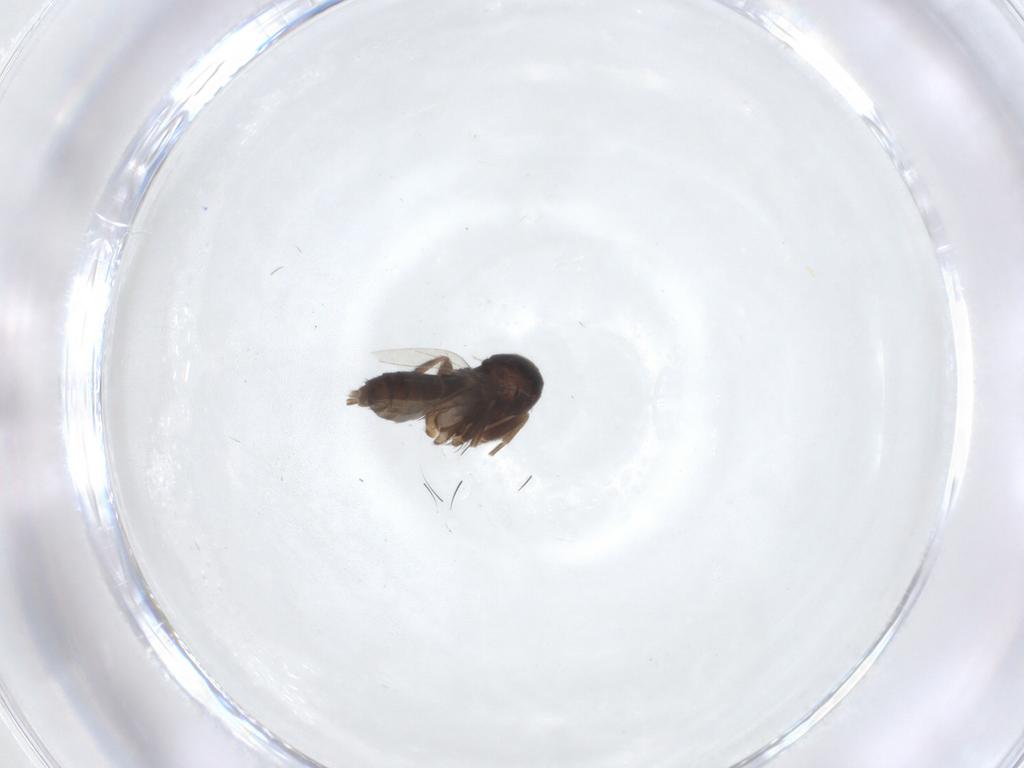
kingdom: Animalia
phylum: Arthropoda
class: Insecta
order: Diptera
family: Phoridae
